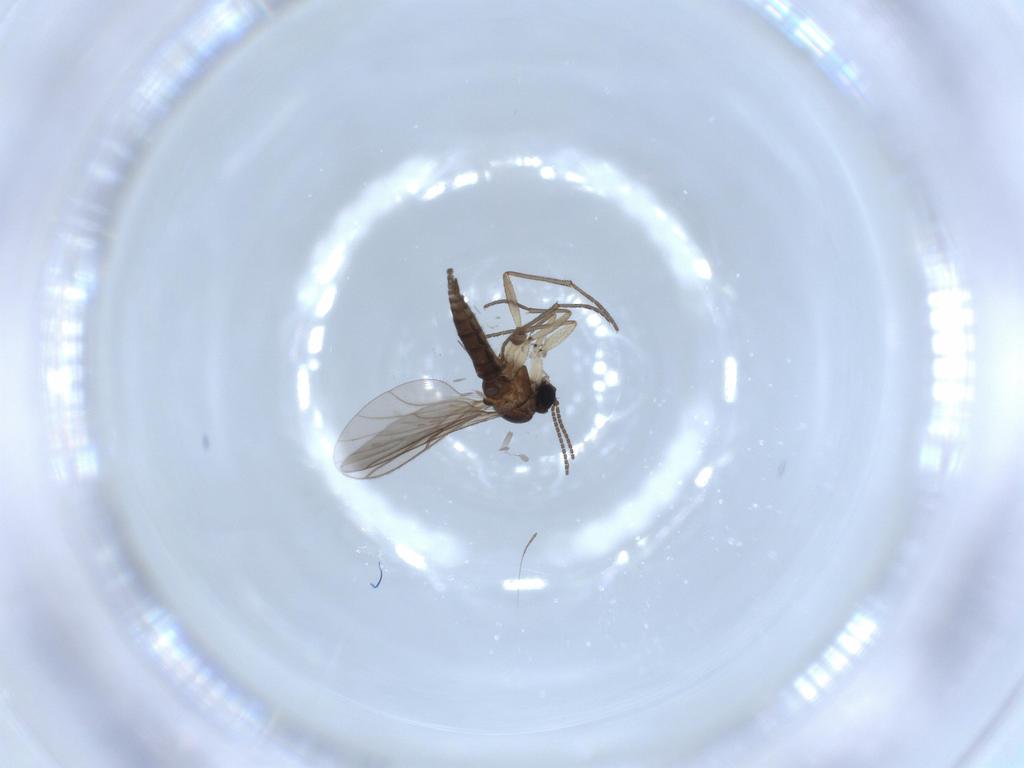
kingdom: Animalia
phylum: Arthropoda
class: Insecta
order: Diptera
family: Sciaridae
